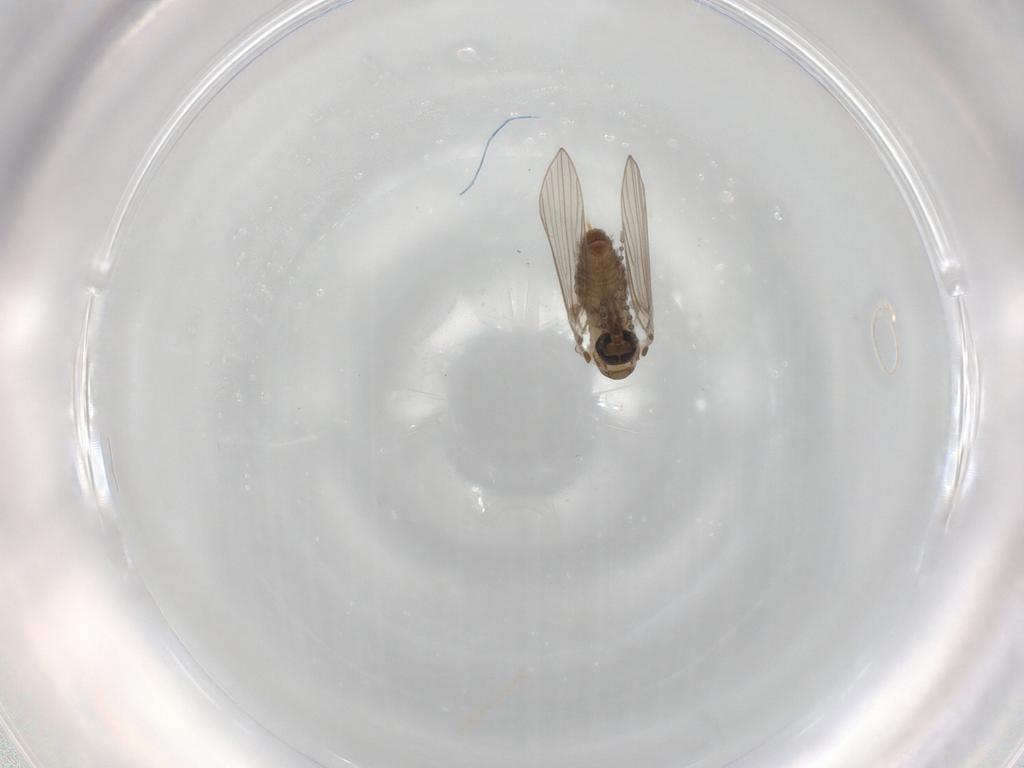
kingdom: Animalia
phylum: Arthropoda
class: Insecta
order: Diptera
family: Psychodidae
